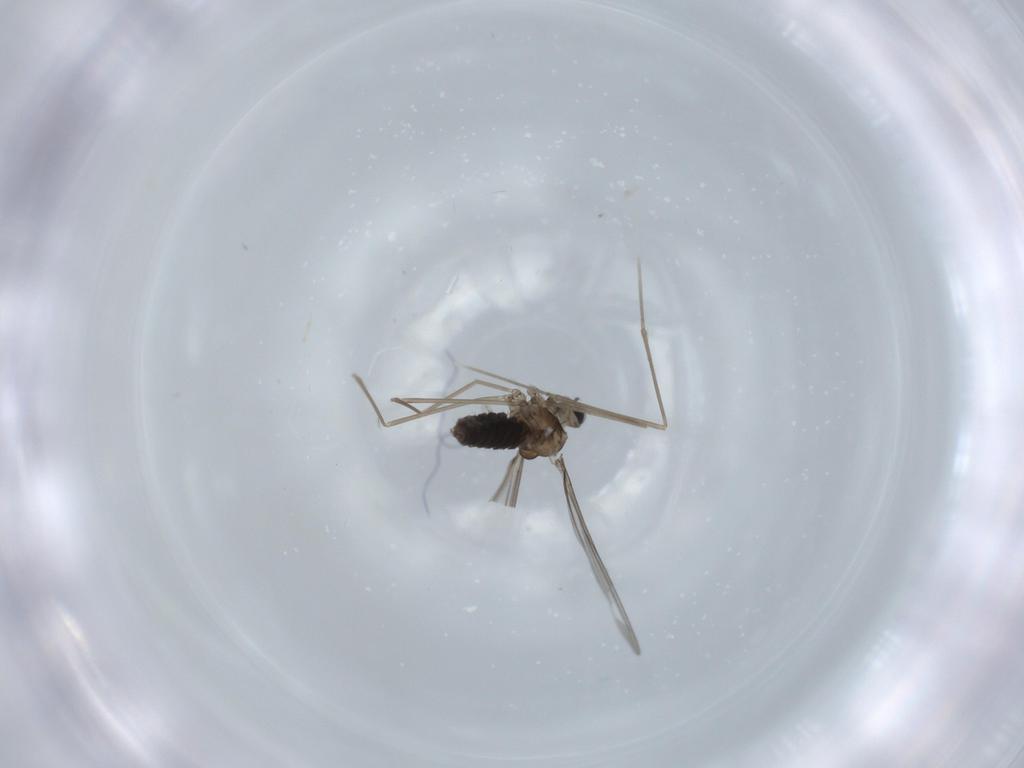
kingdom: Animalia
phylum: Arthropoda
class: Insecta
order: Diptera
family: Cecidomyiidae
